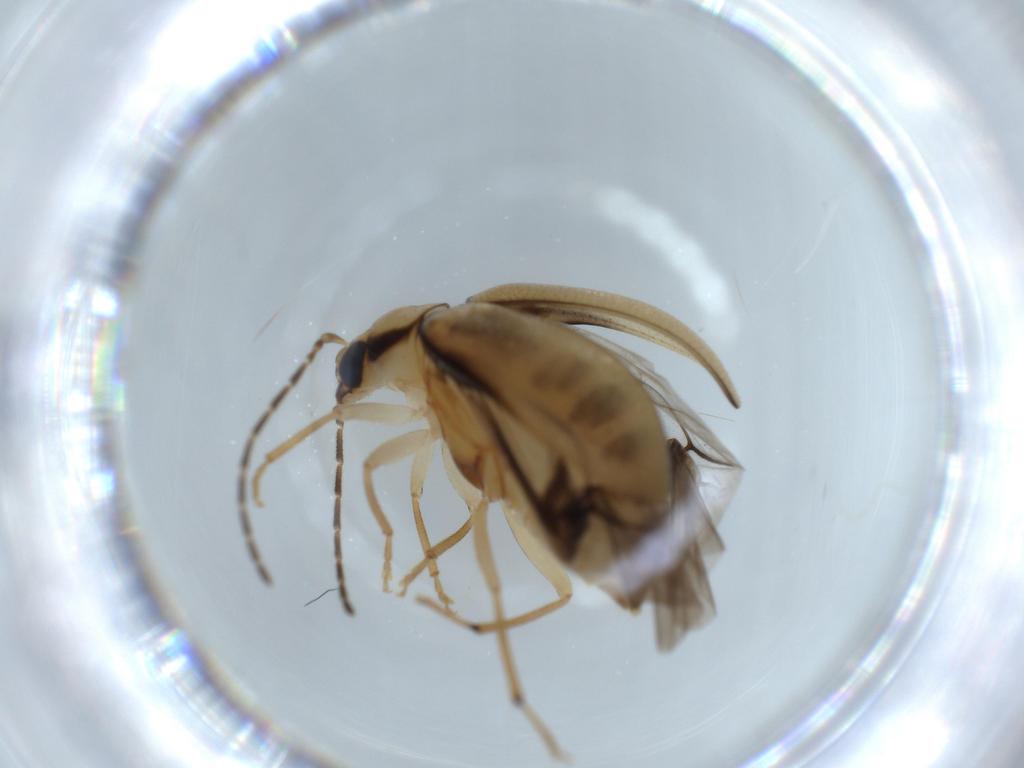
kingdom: Animalia
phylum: Arthropoda
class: Insecta
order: Coleoptera
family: Chrysomelidae
